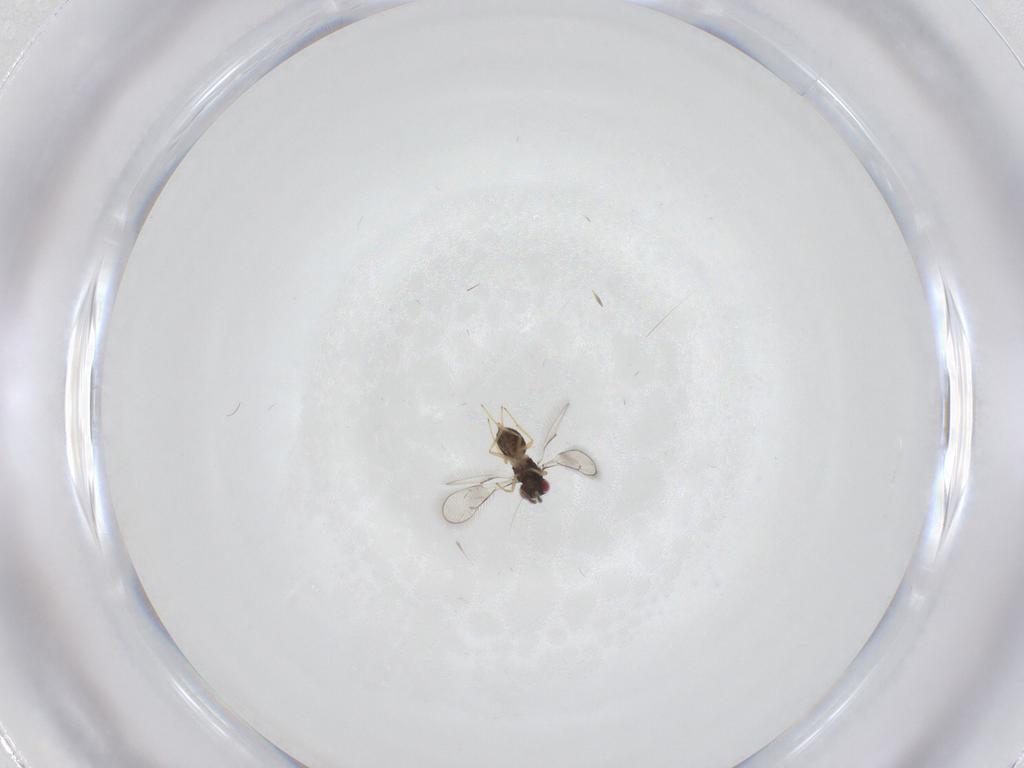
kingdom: Animalia
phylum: Arthropoda
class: Insecta
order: Hymenoptera
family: Eulophidae
